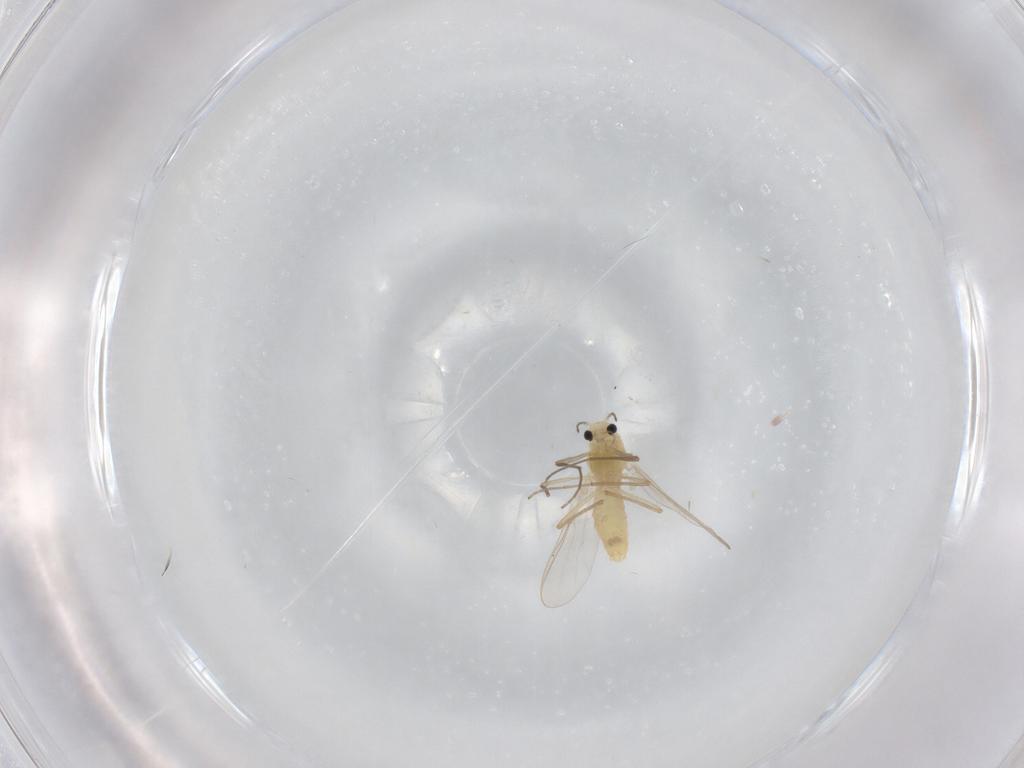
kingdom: Animalia
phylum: Arthropoda
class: Insecta
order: Diptera
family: Chironomidae
